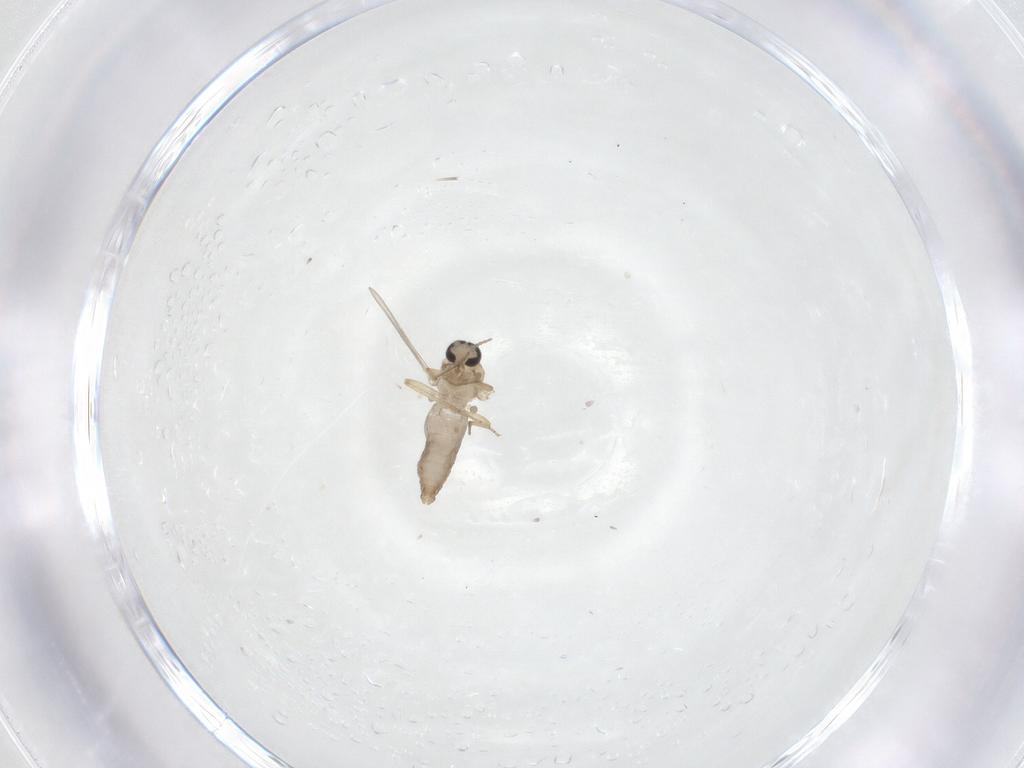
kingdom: Animalia
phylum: Arthropoda
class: Insecta
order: Diptera
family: Ceratopogonidae
